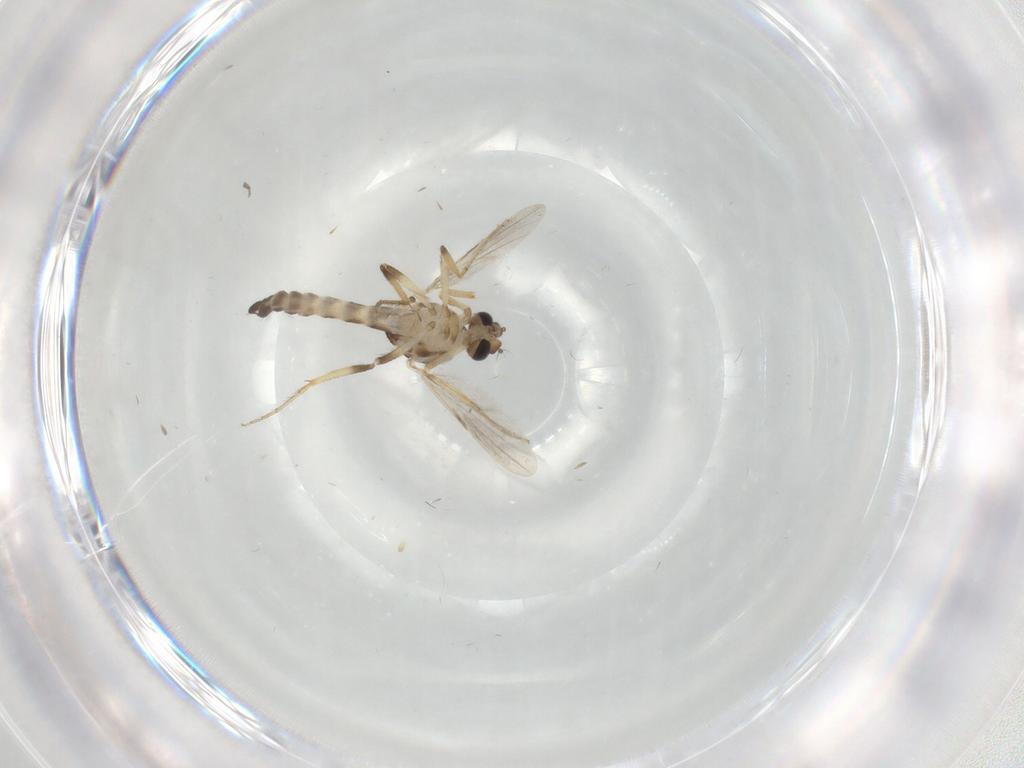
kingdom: Animalia
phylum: Arthropoda
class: Insecta
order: Diptera
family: Ceratopogonidae
